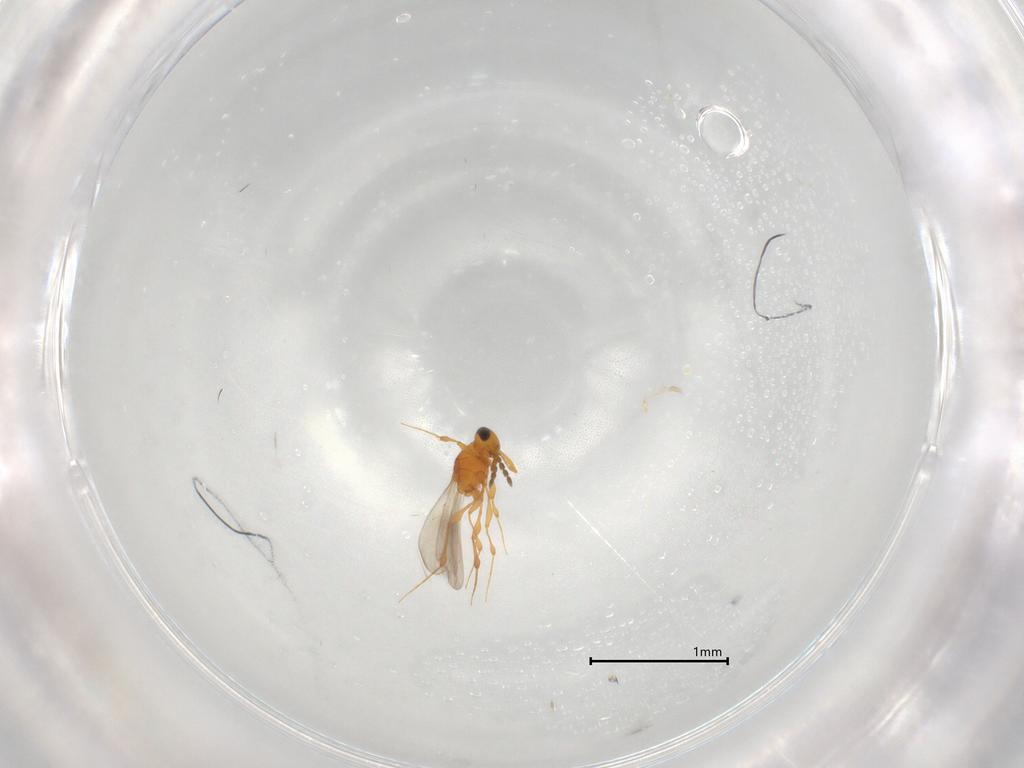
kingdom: Animalia
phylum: Arthropoda
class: Insecta
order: Hymenoptera
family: Platygastridae
